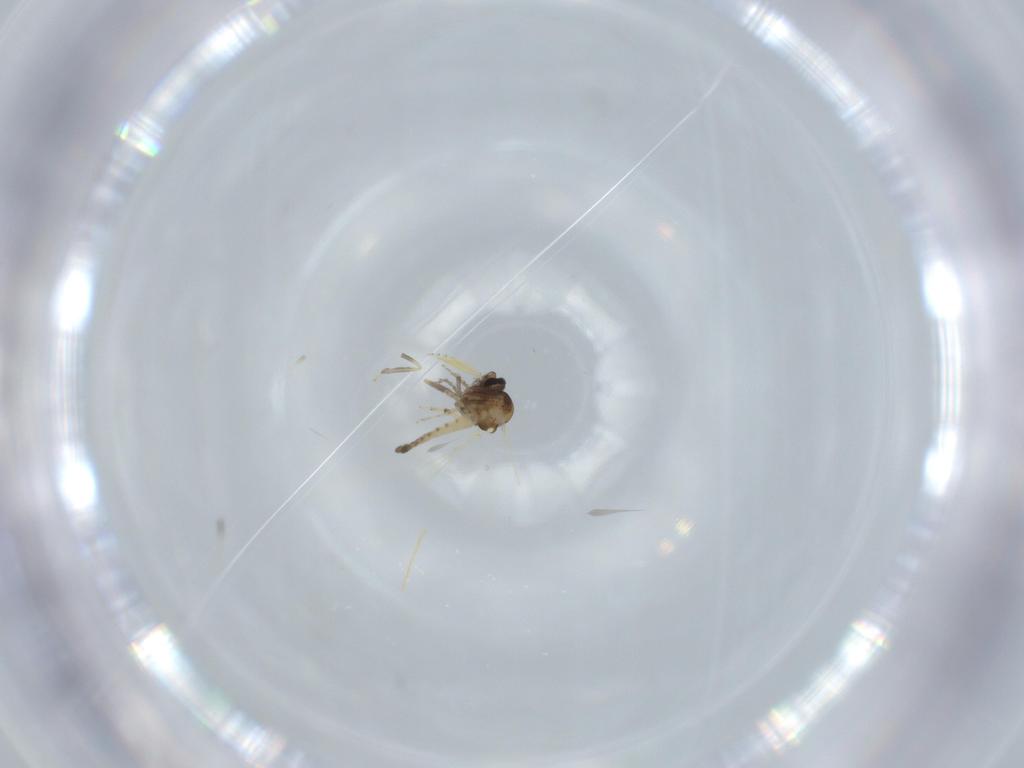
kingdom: Animalia
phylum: Arthropoda
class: Insecta
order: Diptera
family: Ceratopogonidae
